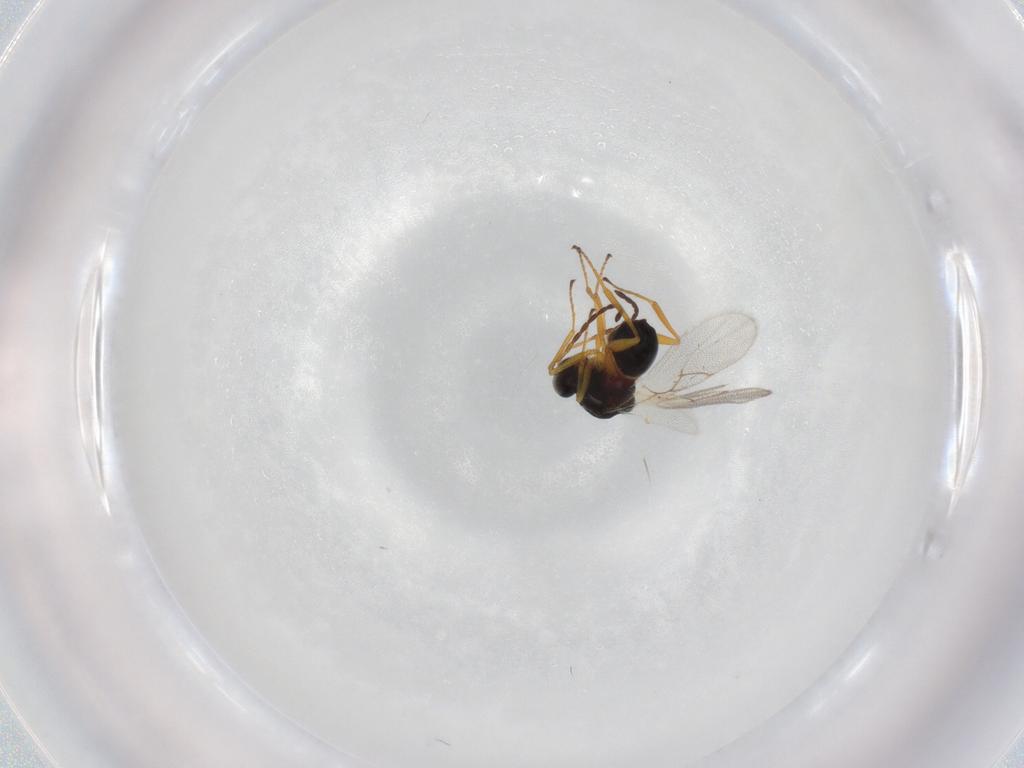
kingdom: Animalia
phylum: Arthropoda
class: Insecta
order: Hymenoptera
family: Figitidae
